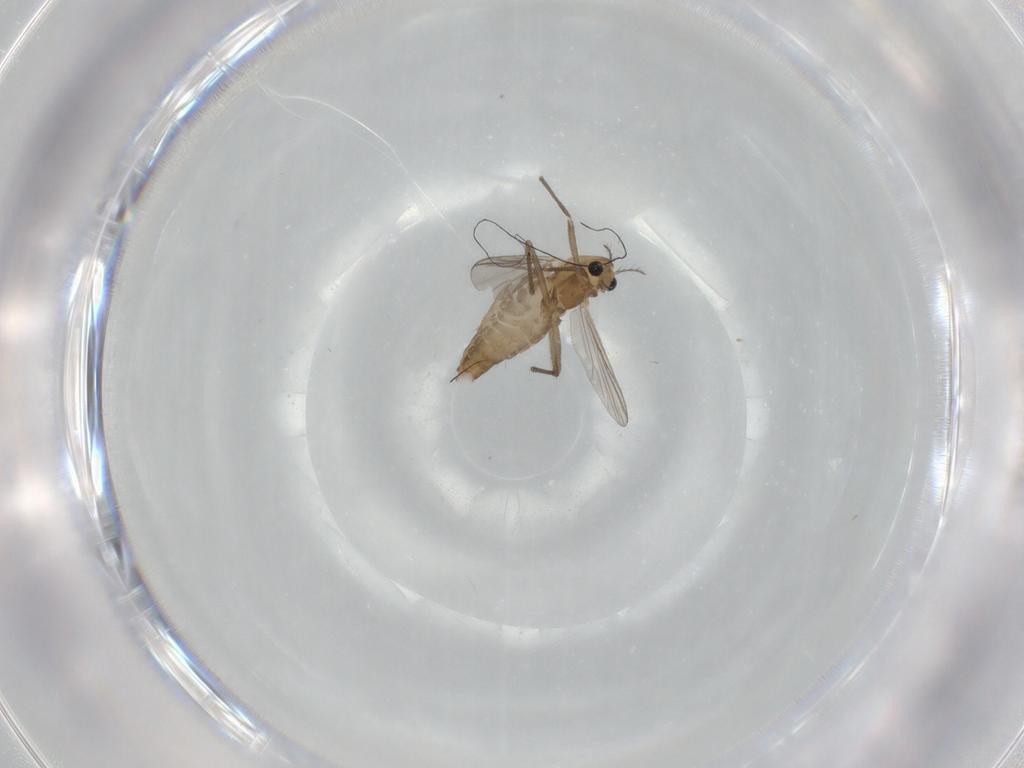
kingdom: Animalia
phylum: Arthropoda
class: Insecta
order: Diptera
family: Chironomidae
